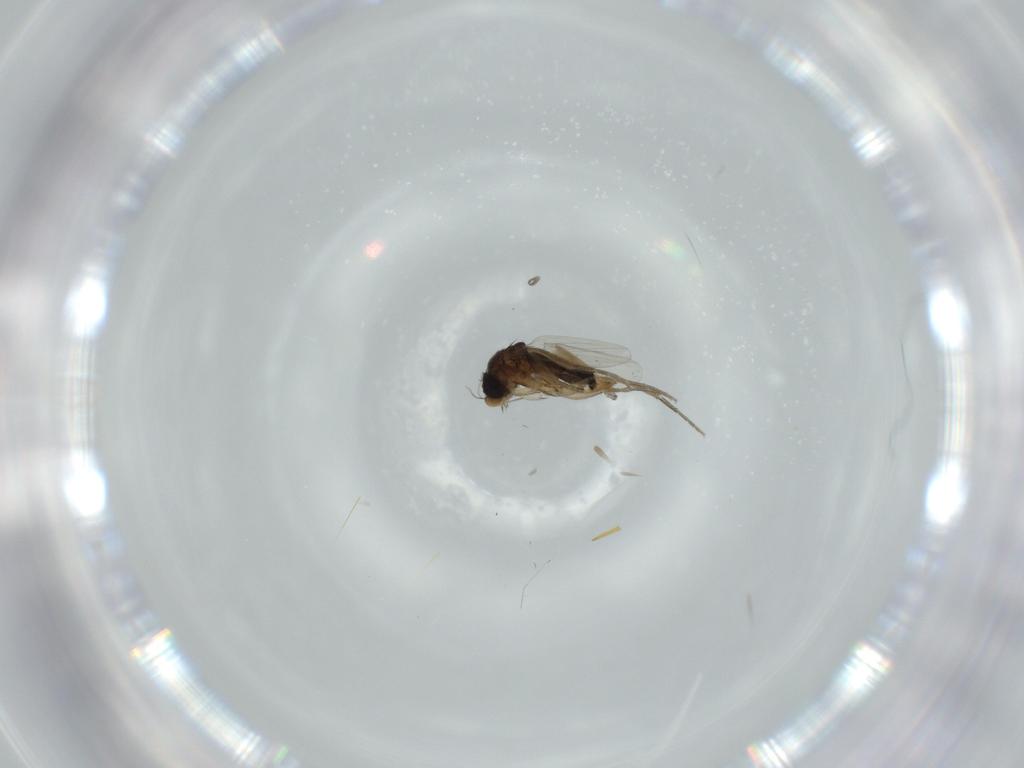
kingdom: Animalia
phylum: Arthropoda
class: Insecta
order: Diptera
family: Phoridae
